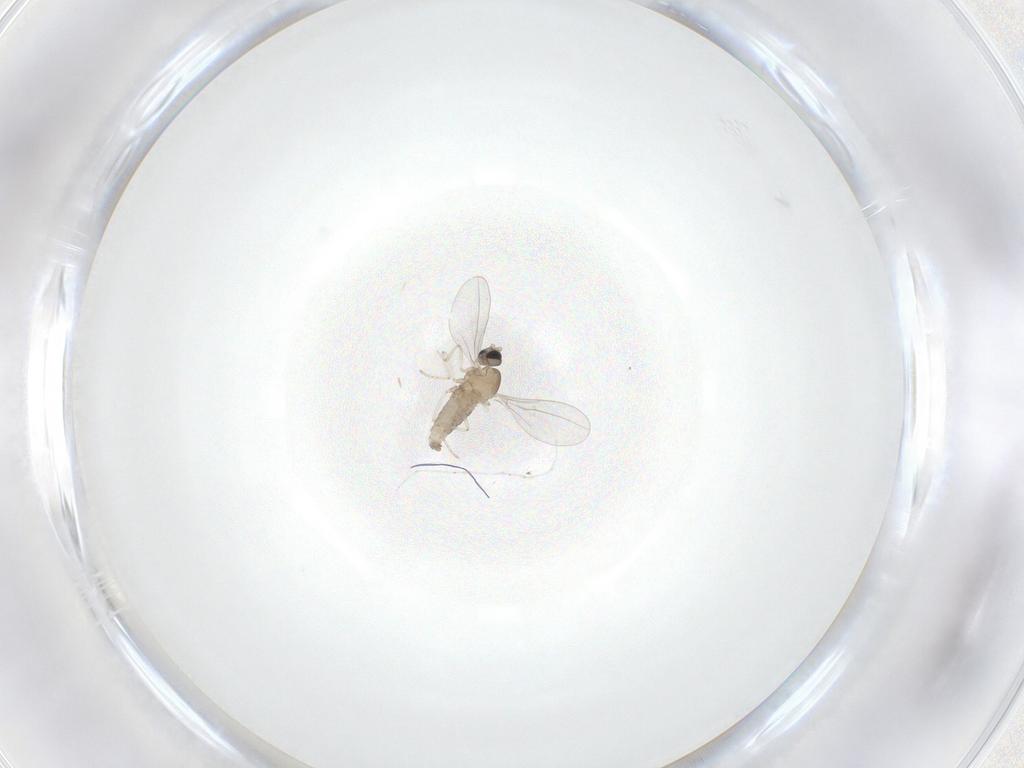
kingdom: Animalia
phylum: Arthropoda
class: Insecta
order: Diptera
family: Cecidomyiidae
